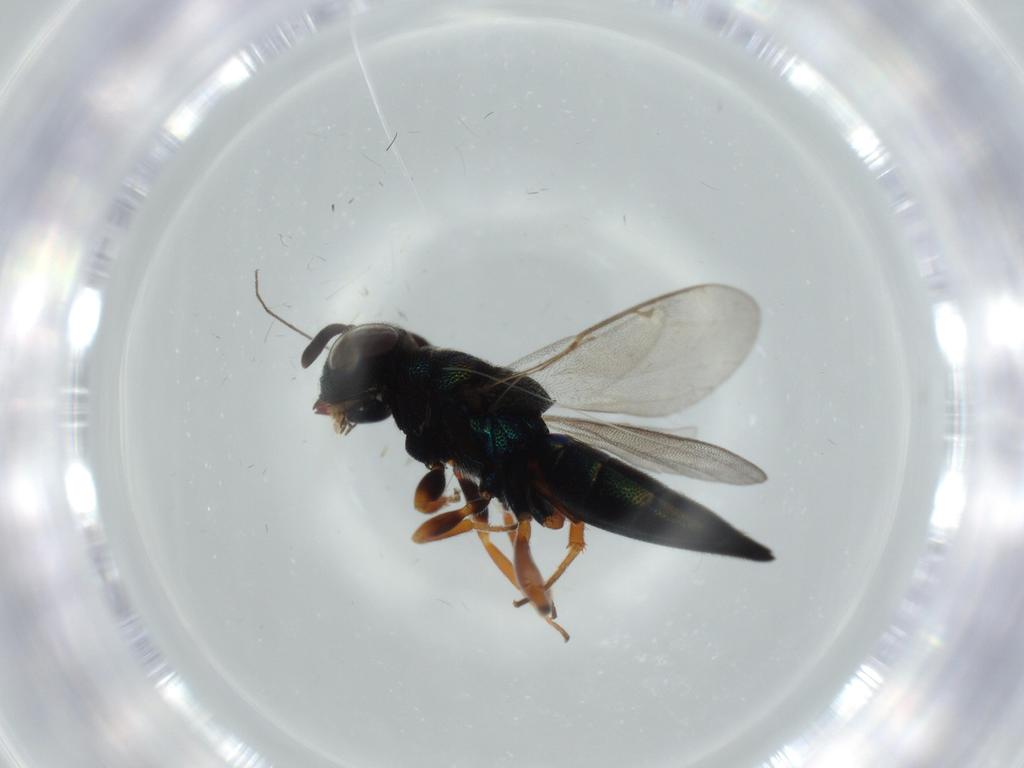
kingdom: Animalia
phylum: Arthropoda
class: Insecta
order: Hymenoptera
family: Lyciscidae
